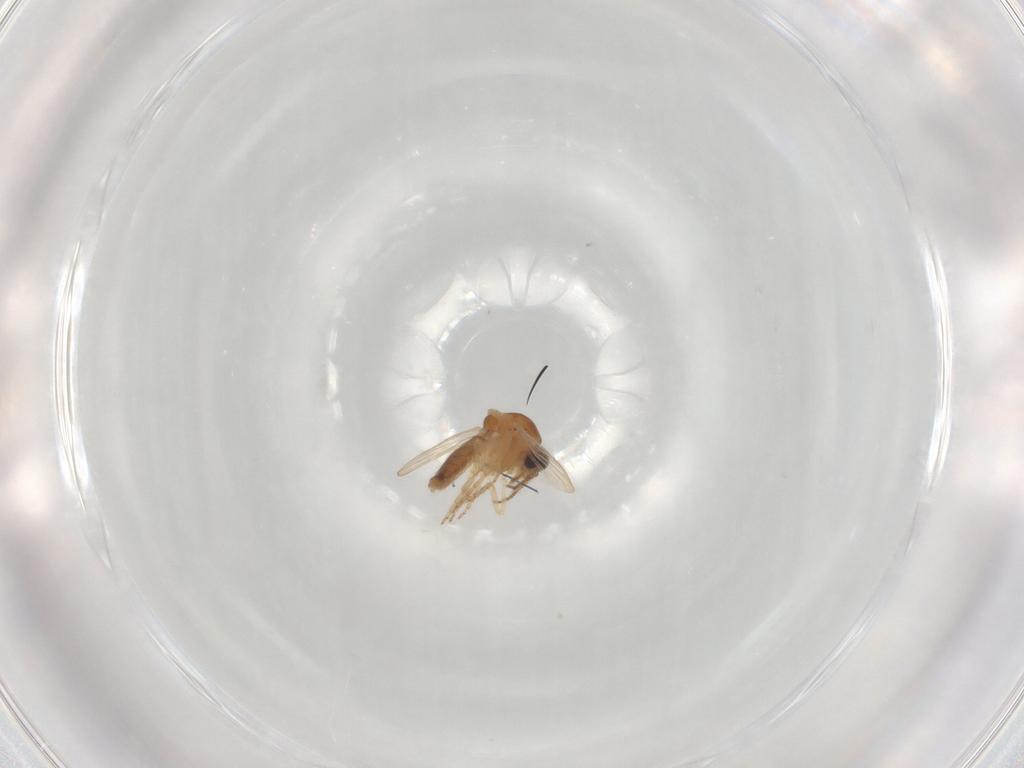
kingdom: Animalia
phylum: Arthropoda
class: Insecta
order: Diptera
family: Ceratopogonidae
